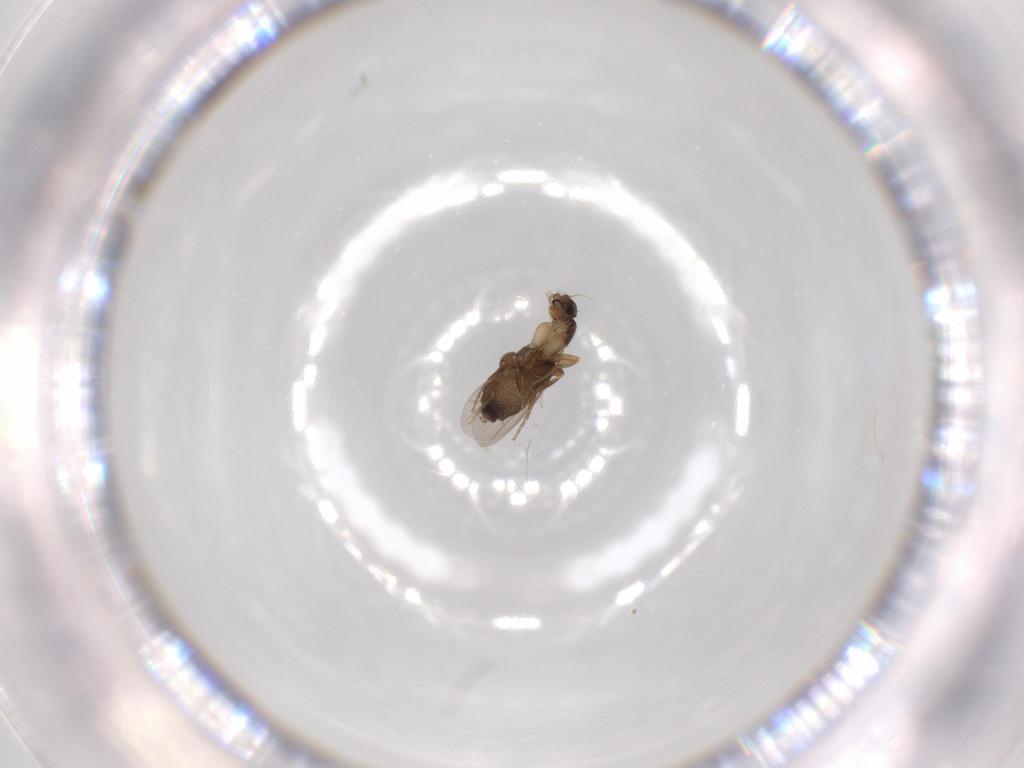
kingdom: Animalia
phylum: Arthropoda
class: Insecta
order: Diptera
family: Phoridae
